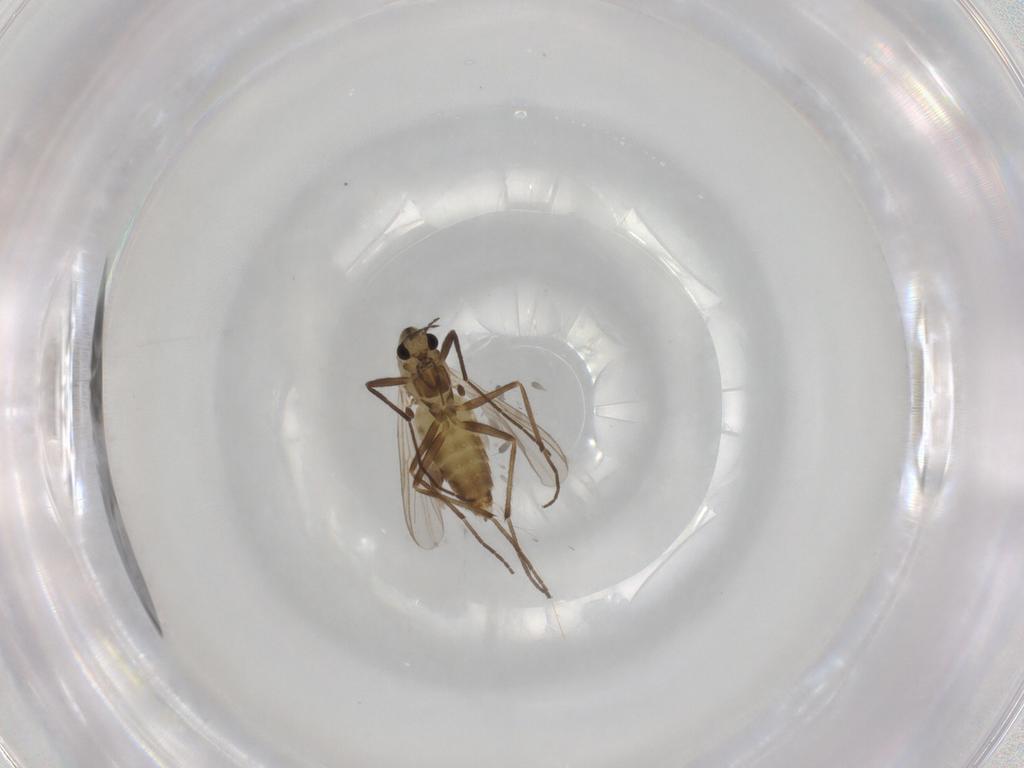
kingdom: Animalia
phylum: Arthropoda
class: Insecta
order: Diptera
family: Chironomidae
